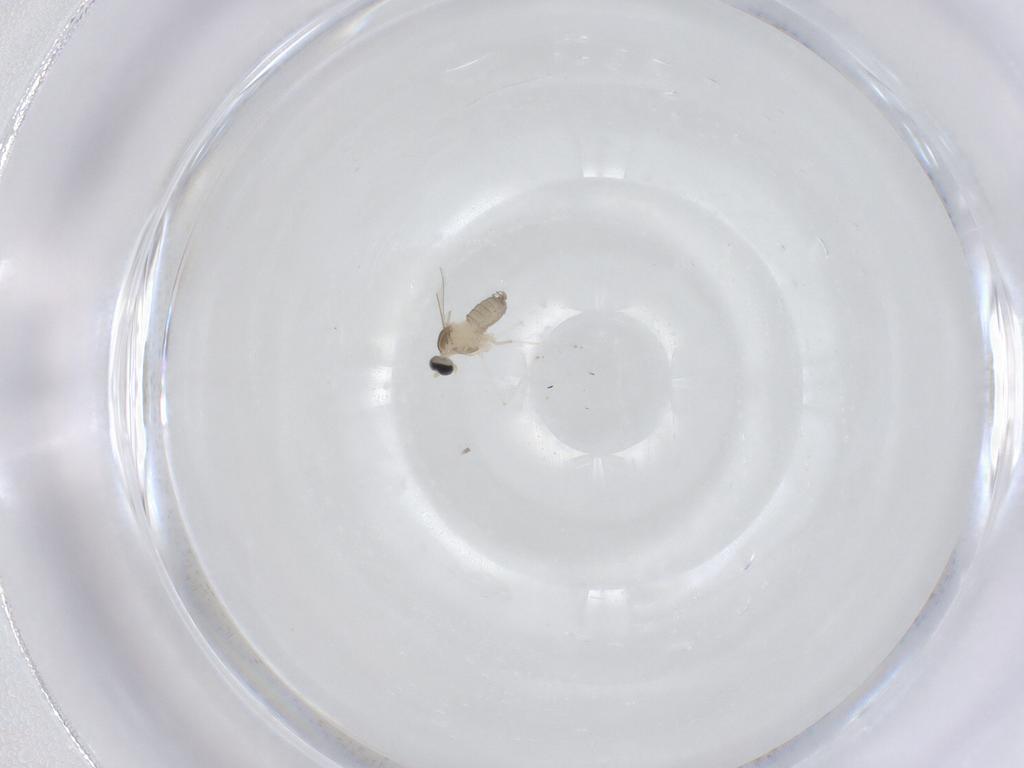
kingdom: Animalia
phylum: Arthropoda
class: Insecta
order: Diptera
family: Cecidomyiidae
